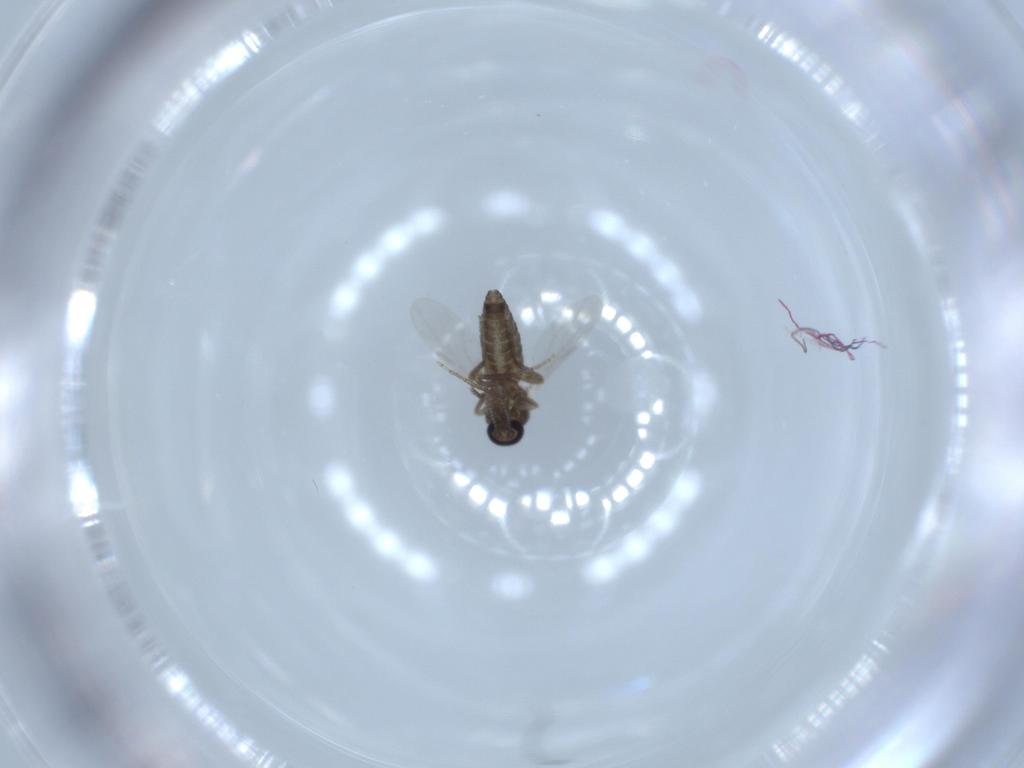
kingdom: Animalia
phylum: Arthropoda
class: Insecta
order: Diptera
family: Ceratopogonidae
